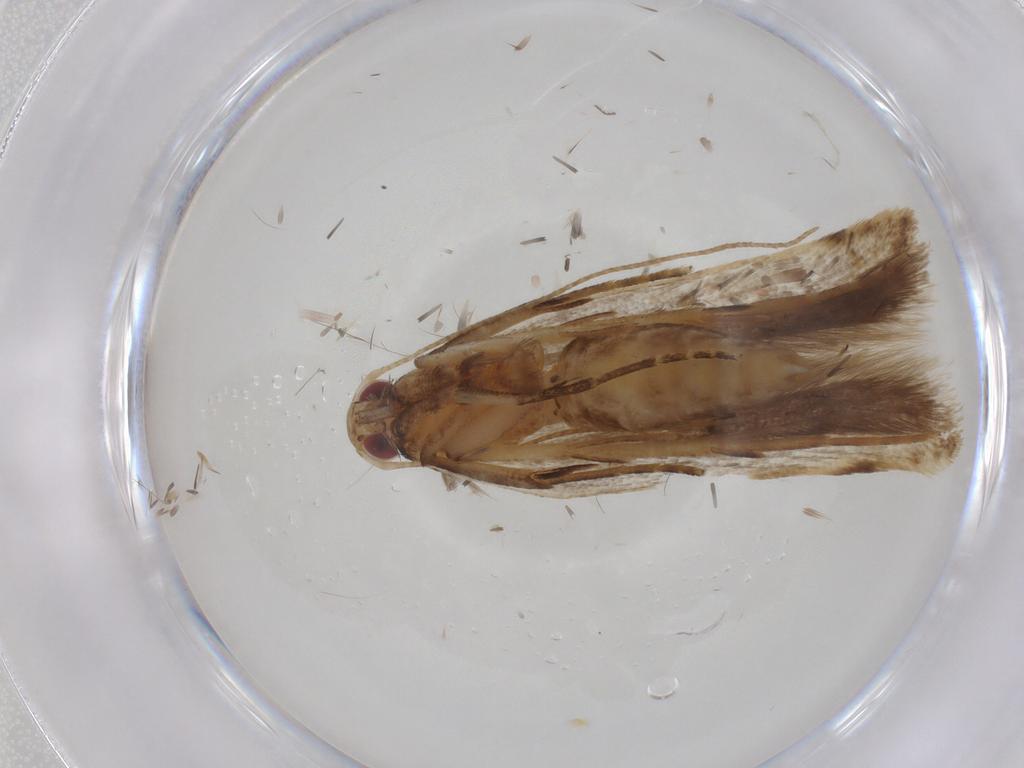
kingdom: Animalia
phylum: Arthropoda
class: Insecta
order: Lepidoptera
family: Gelechiidae
